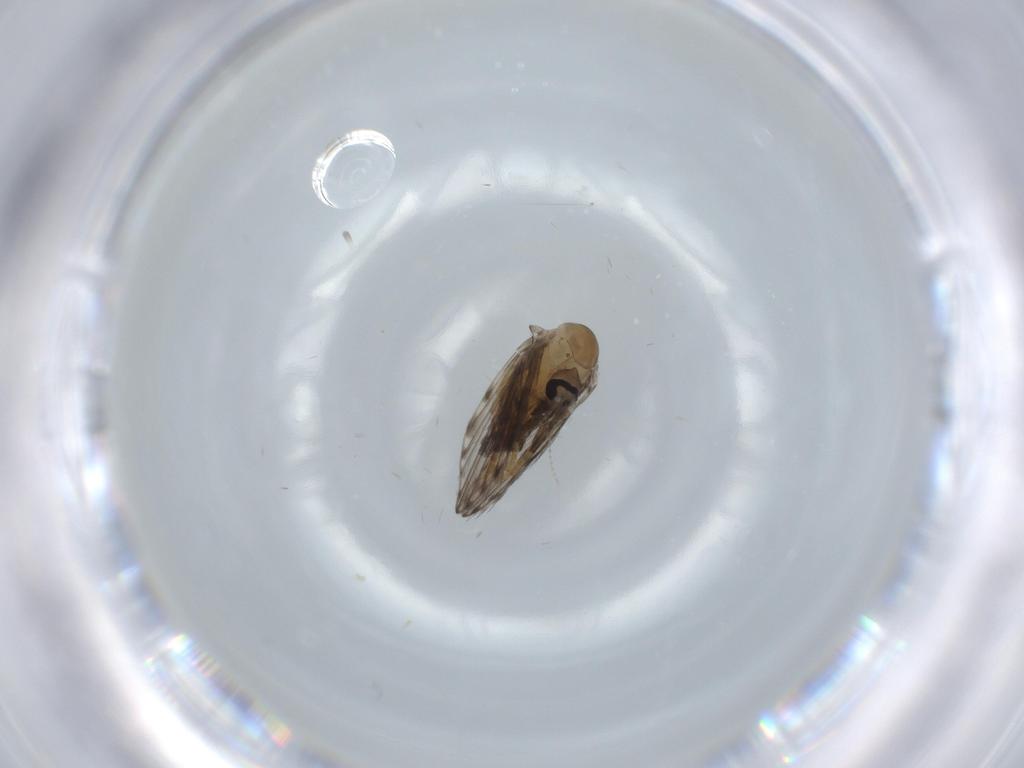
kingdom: Animalia
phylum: Arthropoda
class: Insecta
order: Diptera
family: Psychodidae
